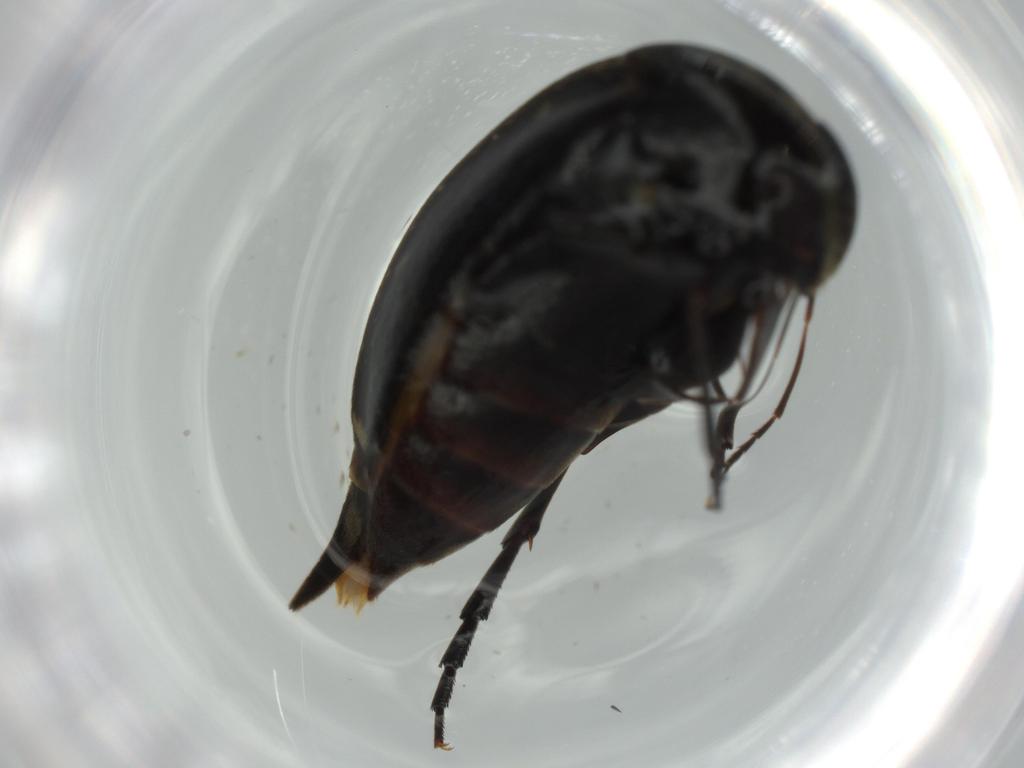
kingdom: Animalia
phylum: Arthropoda
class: Insecta
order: Coleoptera
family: Curculionidae
